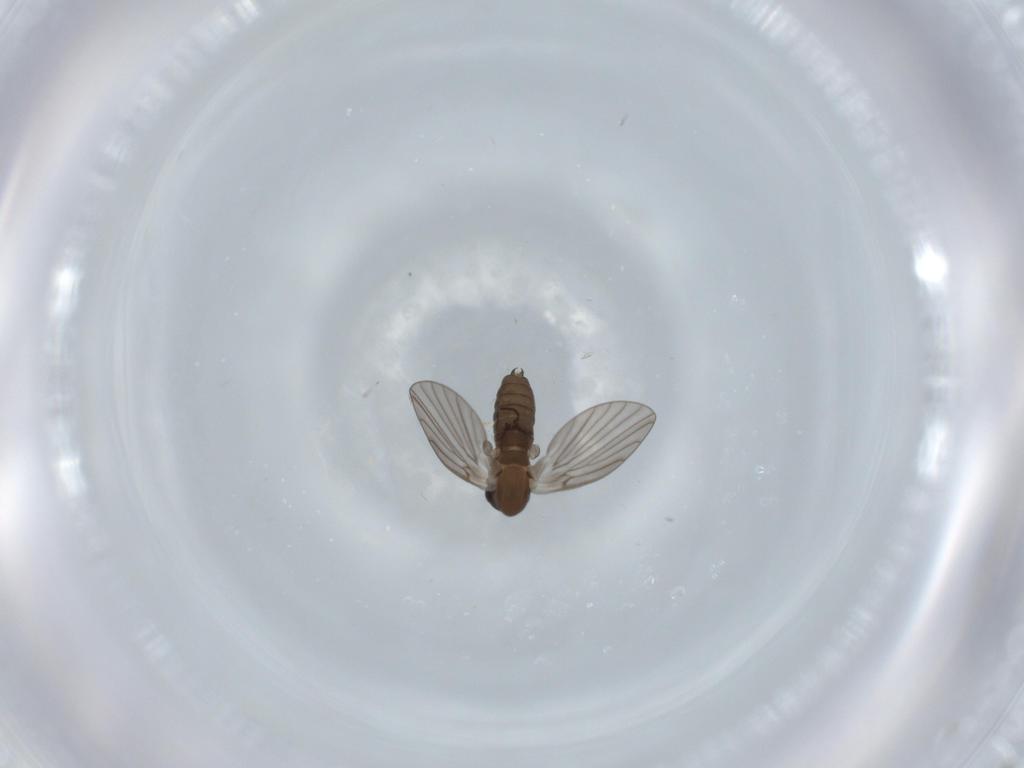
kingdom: Animalia
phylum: Arthropoda
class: Insecta
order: Diptera
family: Psychodidae
